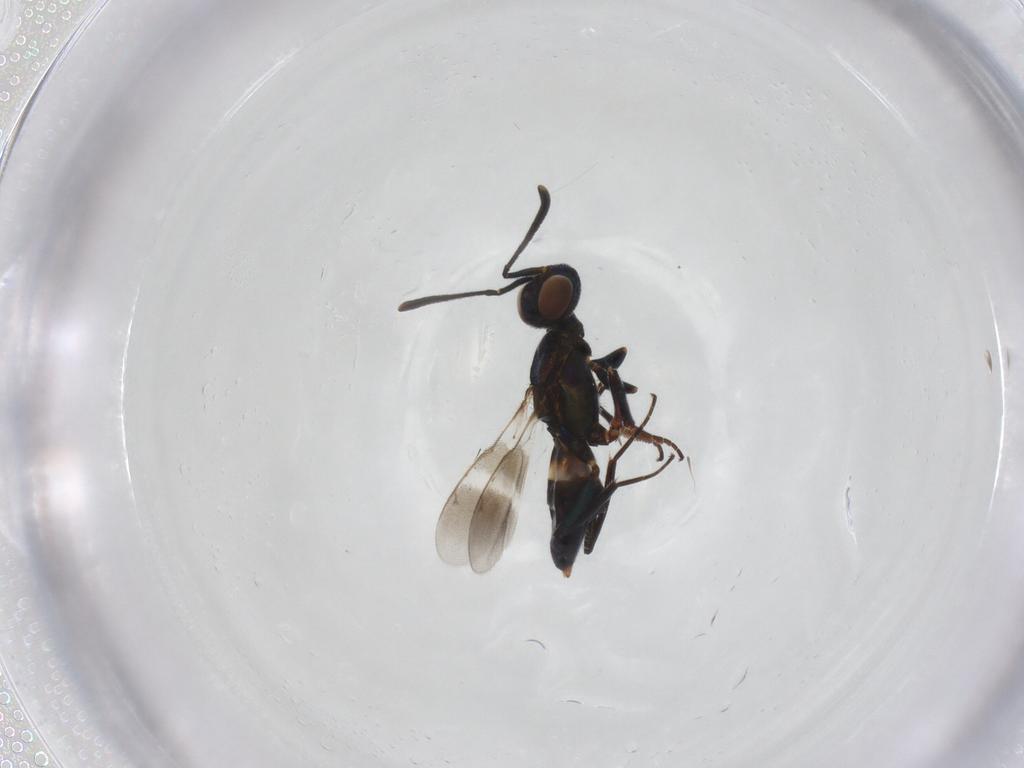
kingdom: Animalia
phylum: Arthropoda
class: Insecta
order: Hymenoptera
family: Eupelmidae
